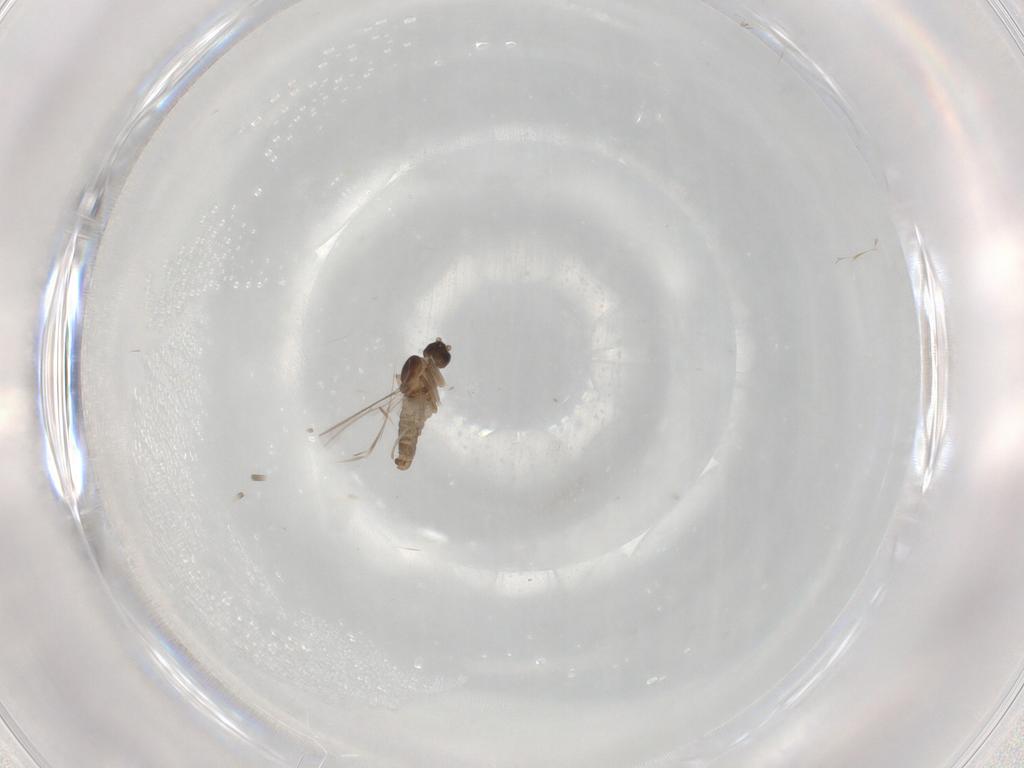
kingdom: Animalia
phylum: Arthropoda
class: Insecta
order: Diptera
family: Cecidomyiidae
